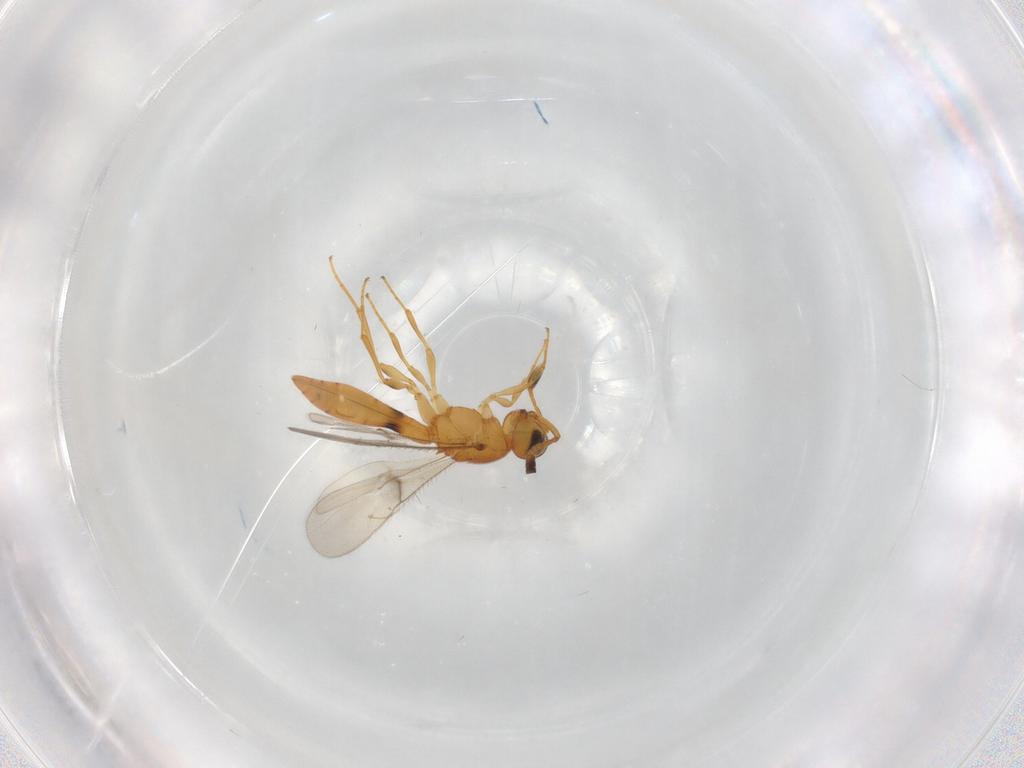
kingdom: Animalia
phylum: Arthropoda
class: Insecta
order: Hymenoptera
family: Scelionidae
